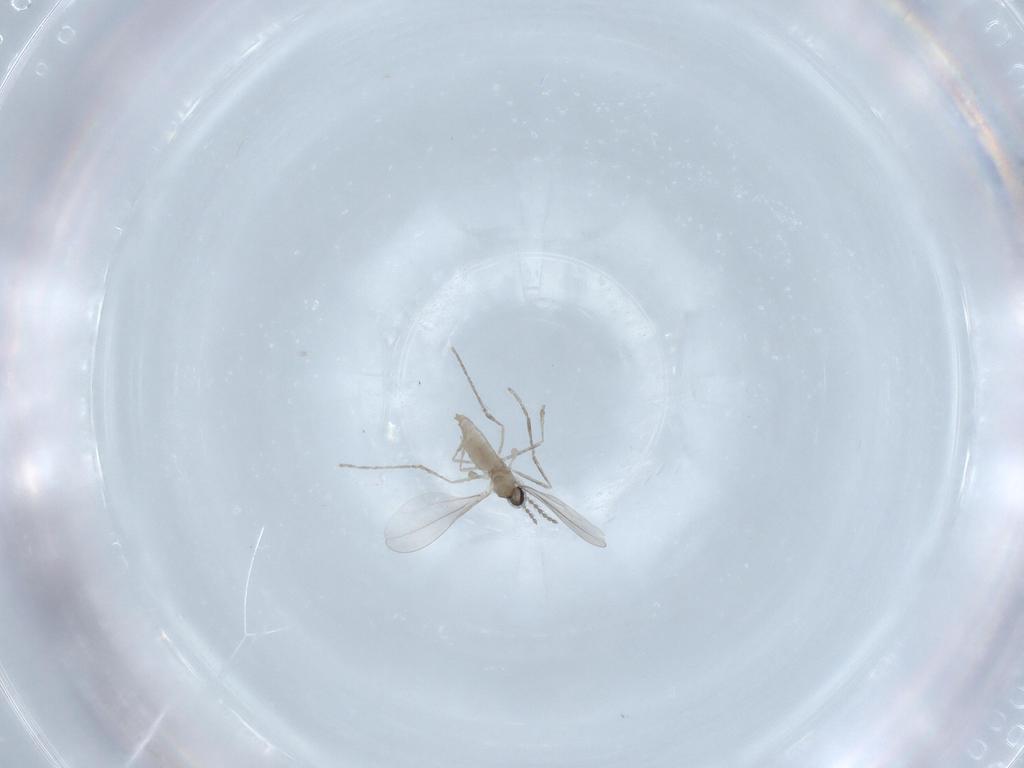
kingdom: Animalia
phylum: Arthropoda
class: Insecta
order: Diptera
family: Cecidomyiidae
